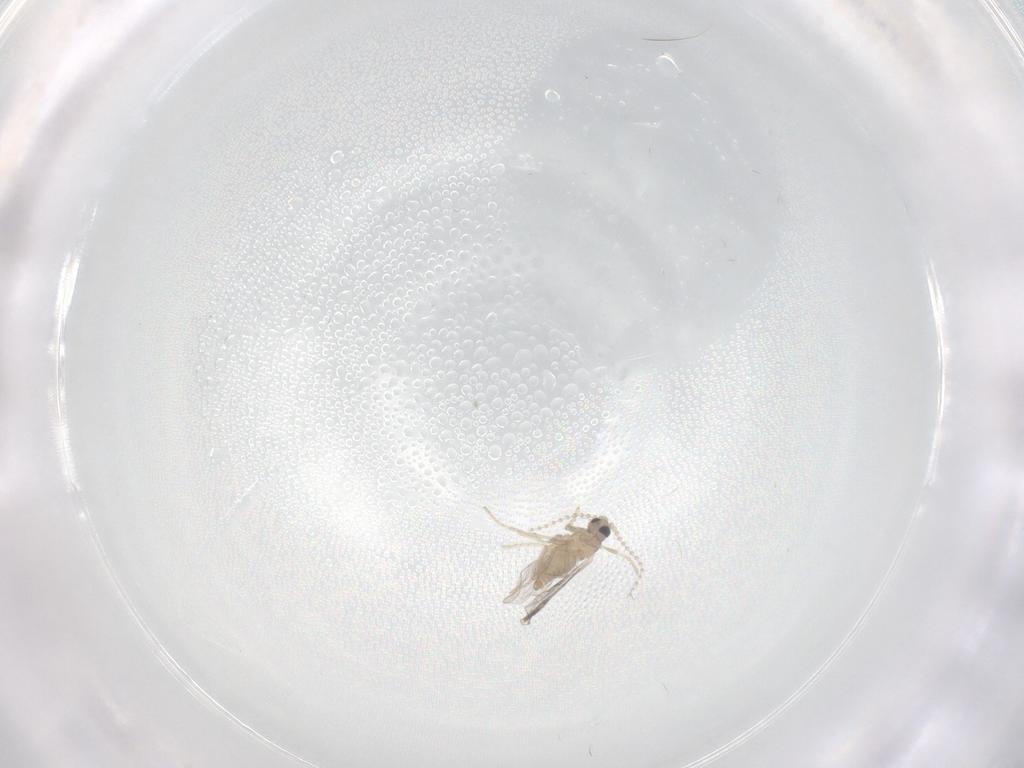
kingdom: Animalia
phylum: Arthropoda
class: Insecta
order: Diptera
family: Cecidomyiidae
